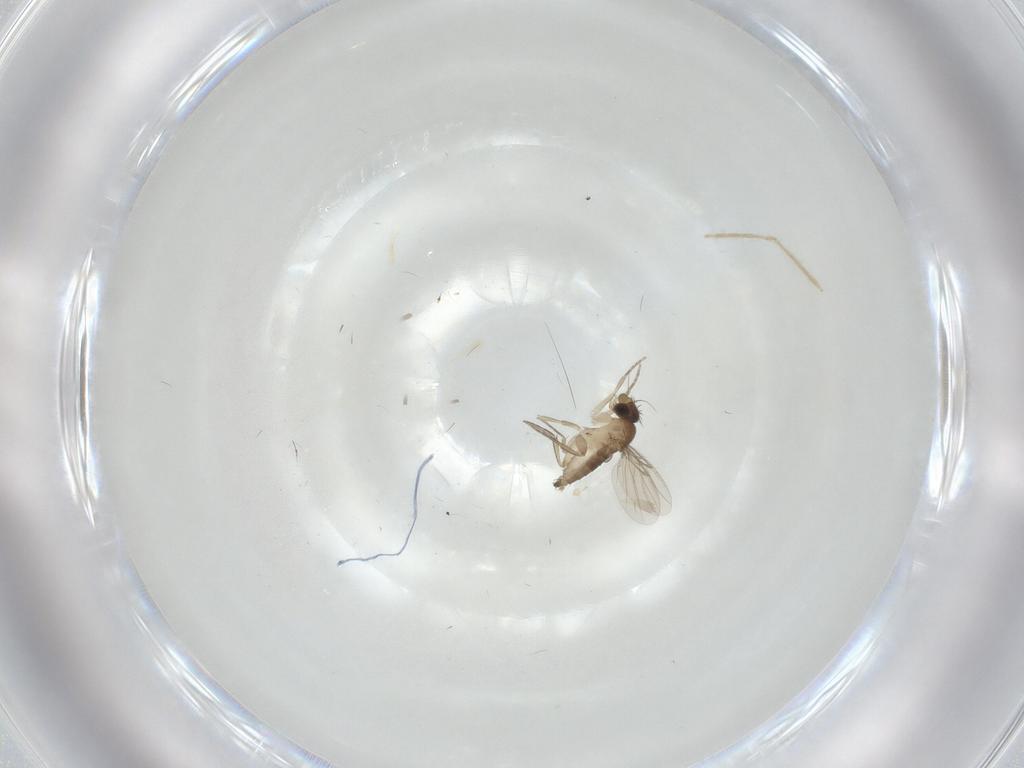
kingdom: Animalia
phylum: Arthropoda
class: Insecta
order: Diptera
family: Phoridae
